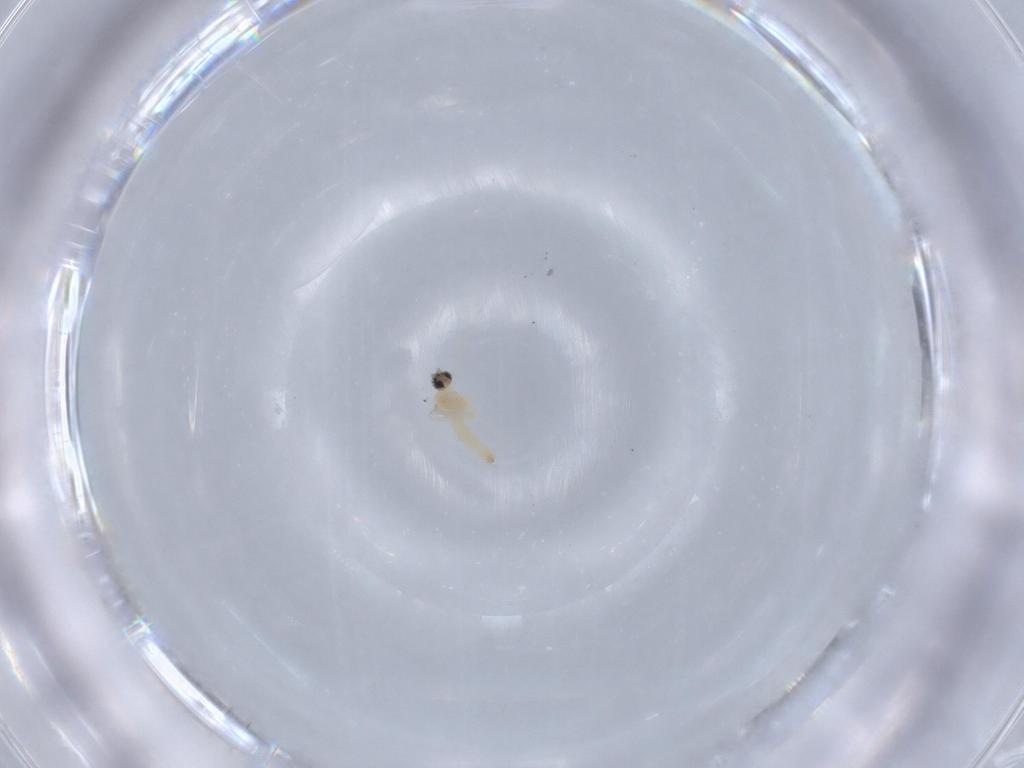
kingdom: Animalia
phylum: Arthropoda
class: Insecta
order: Diptera
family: Cecidomyiidae
